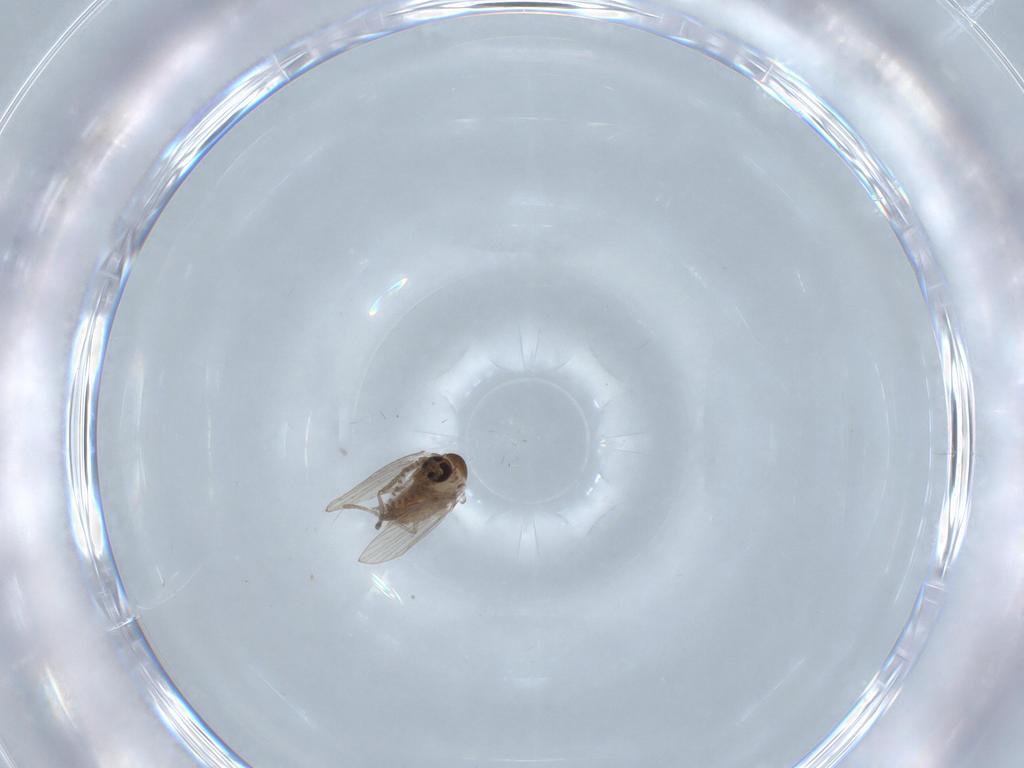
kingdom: Animalia
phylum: Arthropoda
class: Insecta
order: Diptera
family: Psychodidae
